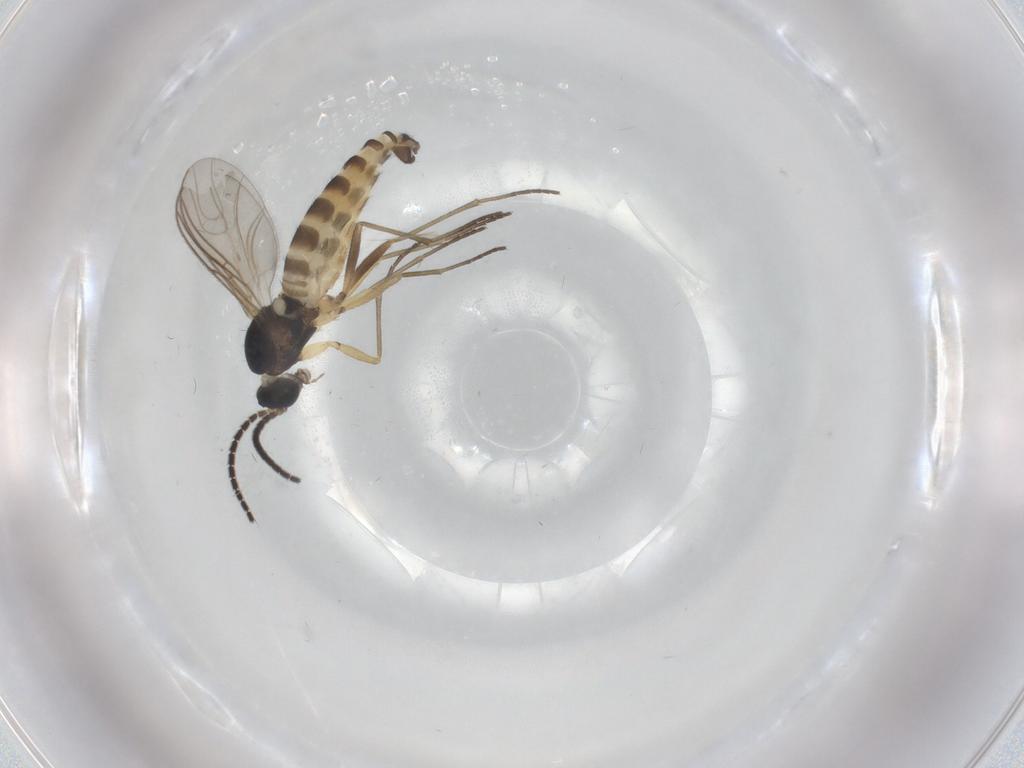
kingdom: Animalia
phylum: Arthropoda
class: Insecta
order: Diptera
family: Sciaridae
